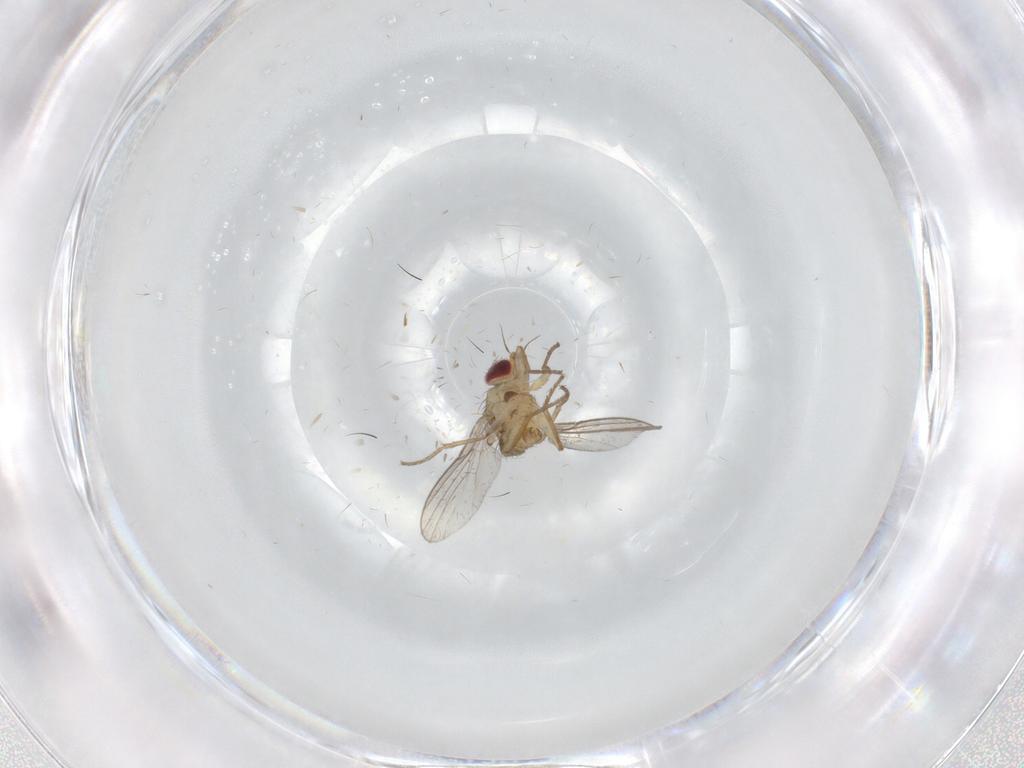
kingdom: Animalia
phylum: Arthropoda
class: Insecta
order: Diptera
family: Agromyzidae
